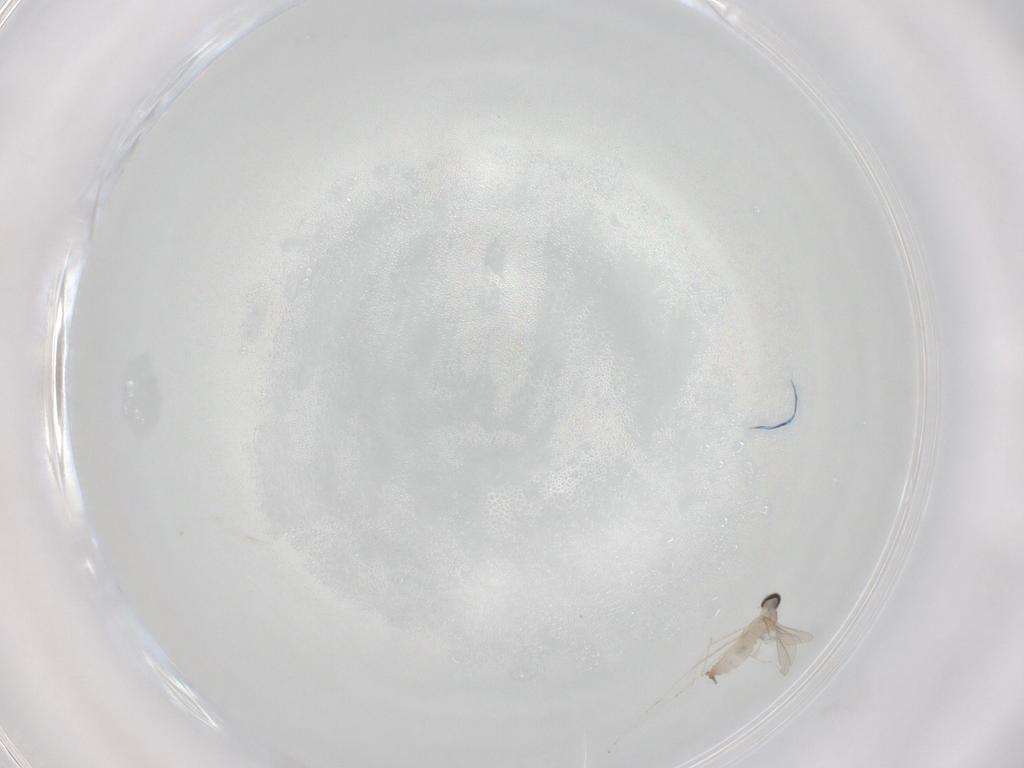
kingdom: Animalia
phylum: Arthropoda
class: Insecta
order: Diptera
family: Cecidomyiidae
